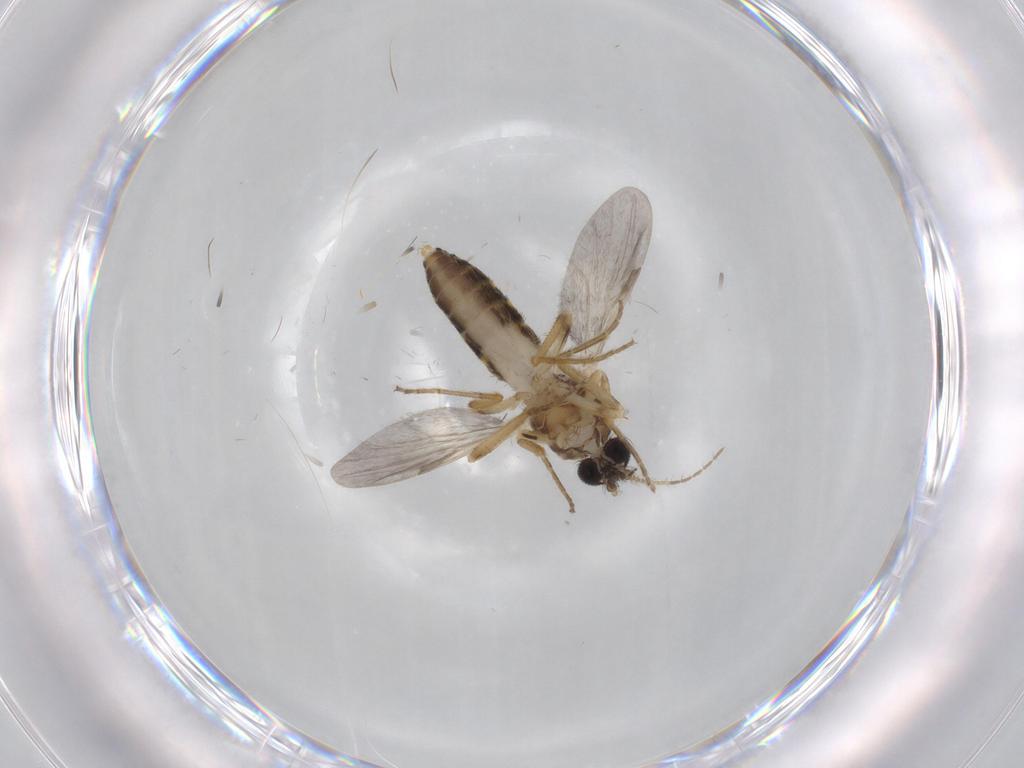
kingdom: Animalia
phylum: Arthropoda
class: Insecta
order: Diptera
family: Ceratopogonidae
